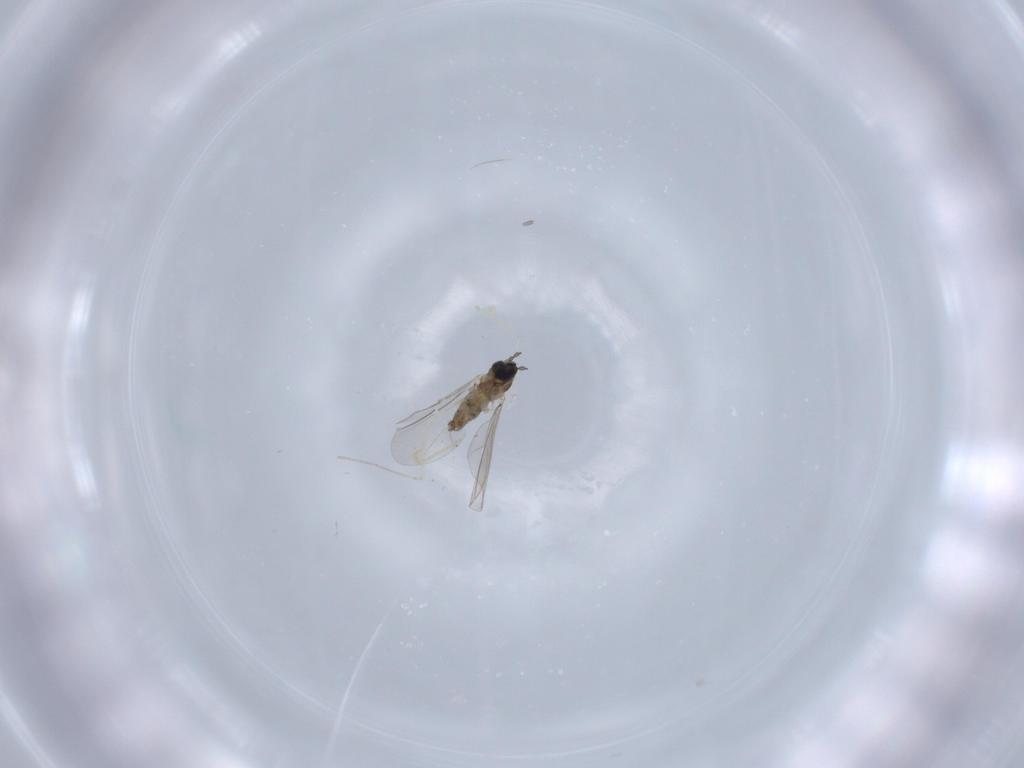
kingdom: Animalia
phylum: Arthropoda
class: Insecta
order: Diptera
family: Cecidomyiidae
